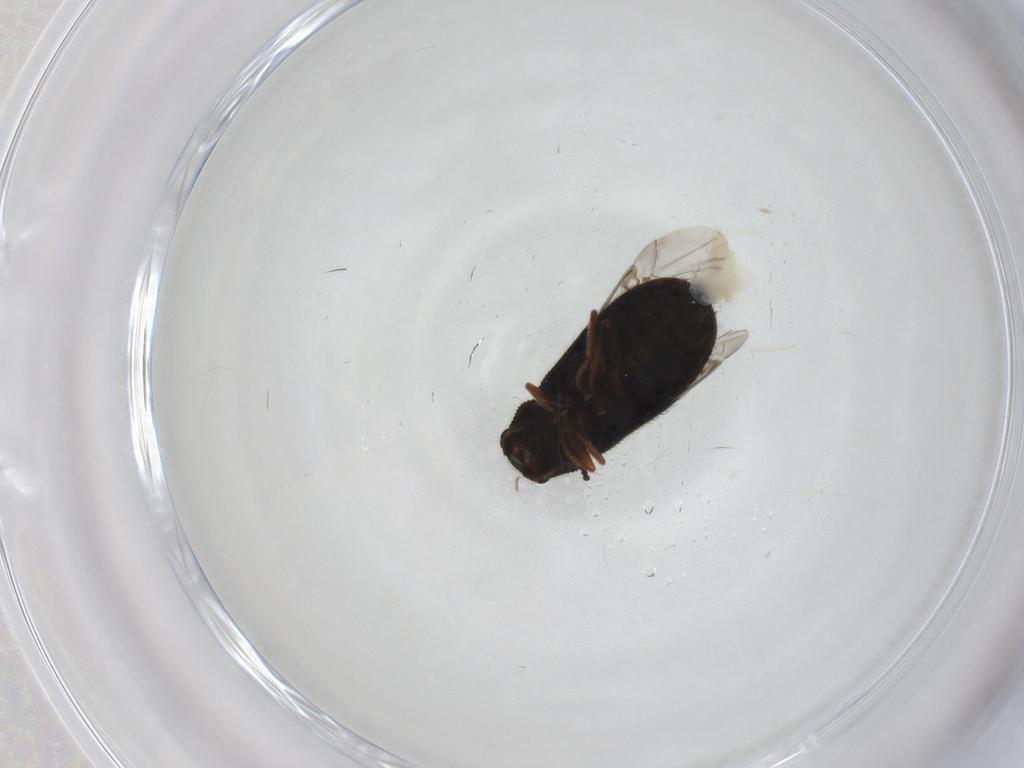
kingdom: Animalia
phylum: Arthropoda
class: Insecta
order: Coleoptera
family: Melyridae
